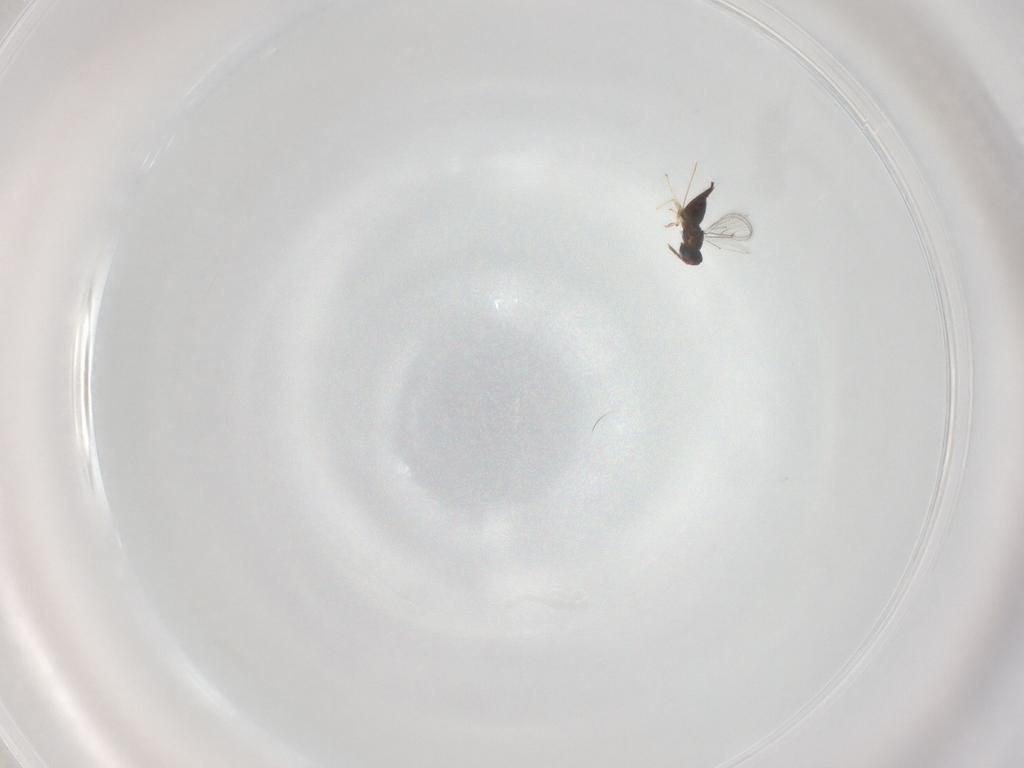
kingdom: Animalia
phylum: Arthropoda
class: Insecta
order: Hymenoptera
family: Eulophidae
